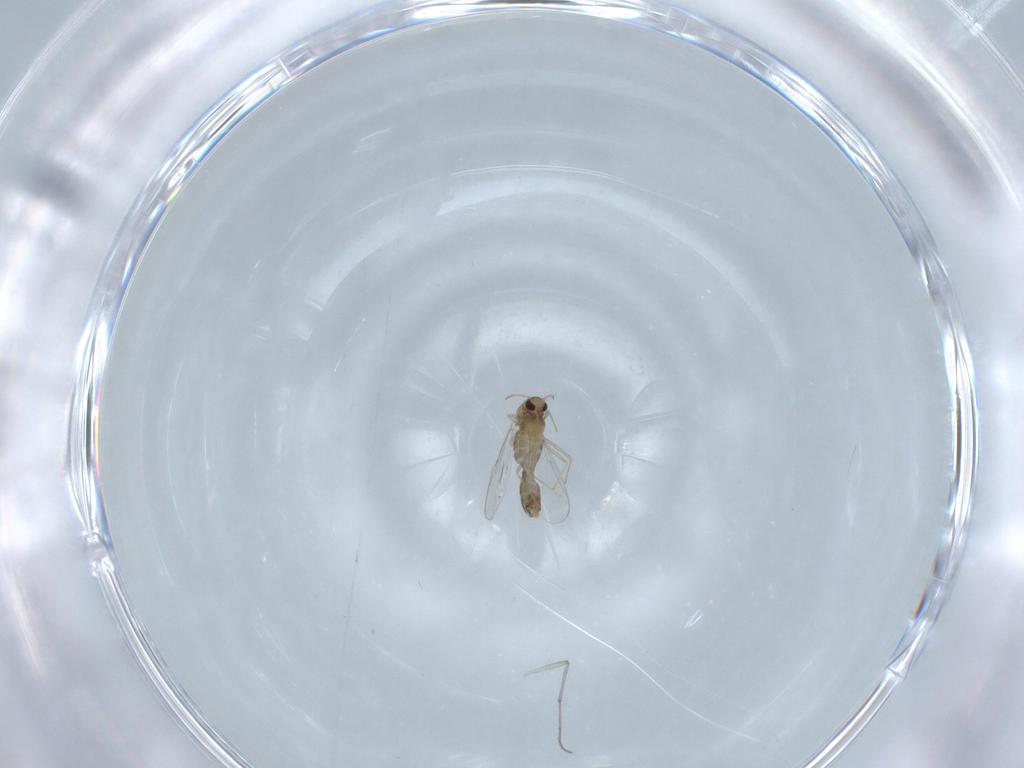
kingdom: Animalia
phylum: Arthropoda
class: Insecta
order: Diptera
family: Chironomidae
